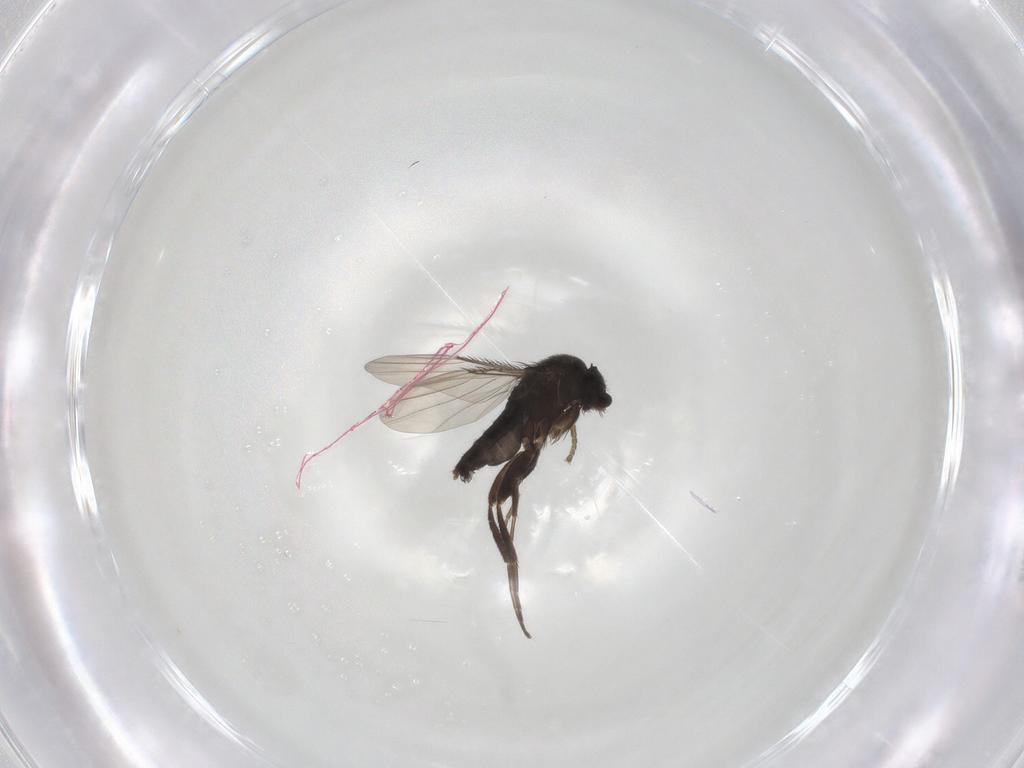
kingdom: Animalia
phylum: Arthropoda
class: Insecta
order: Diptera
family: Phoridae
